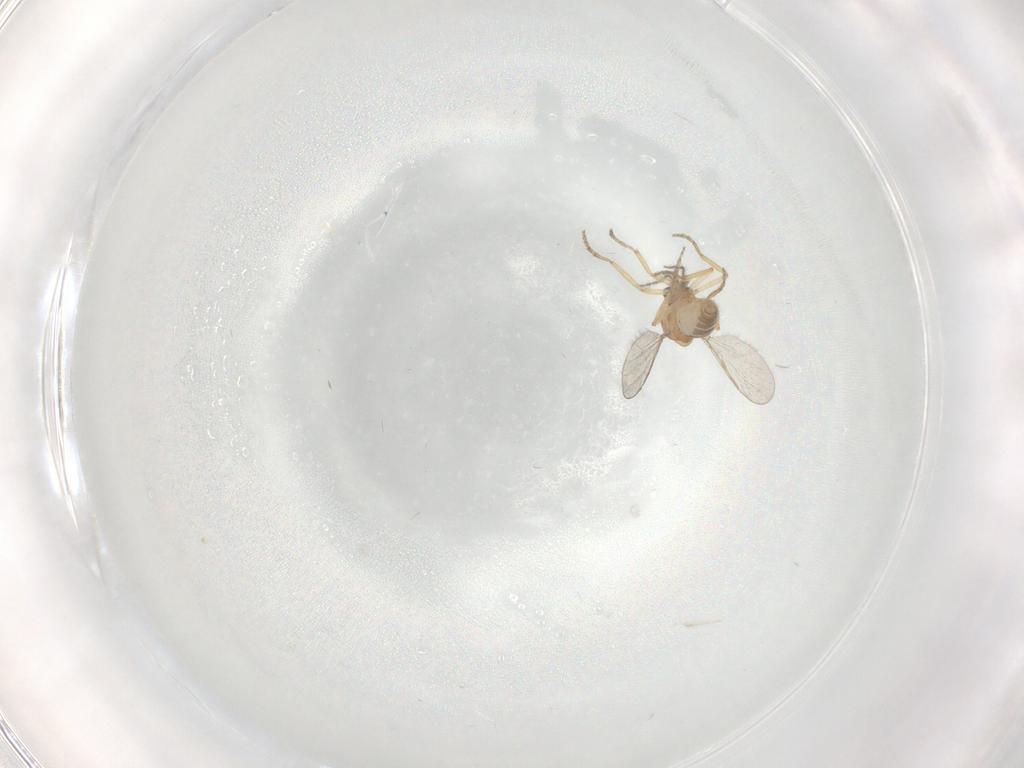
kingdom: Animalia
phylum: Arthropoda
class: Insecta
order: Diptera
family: Ceratopogonidae
